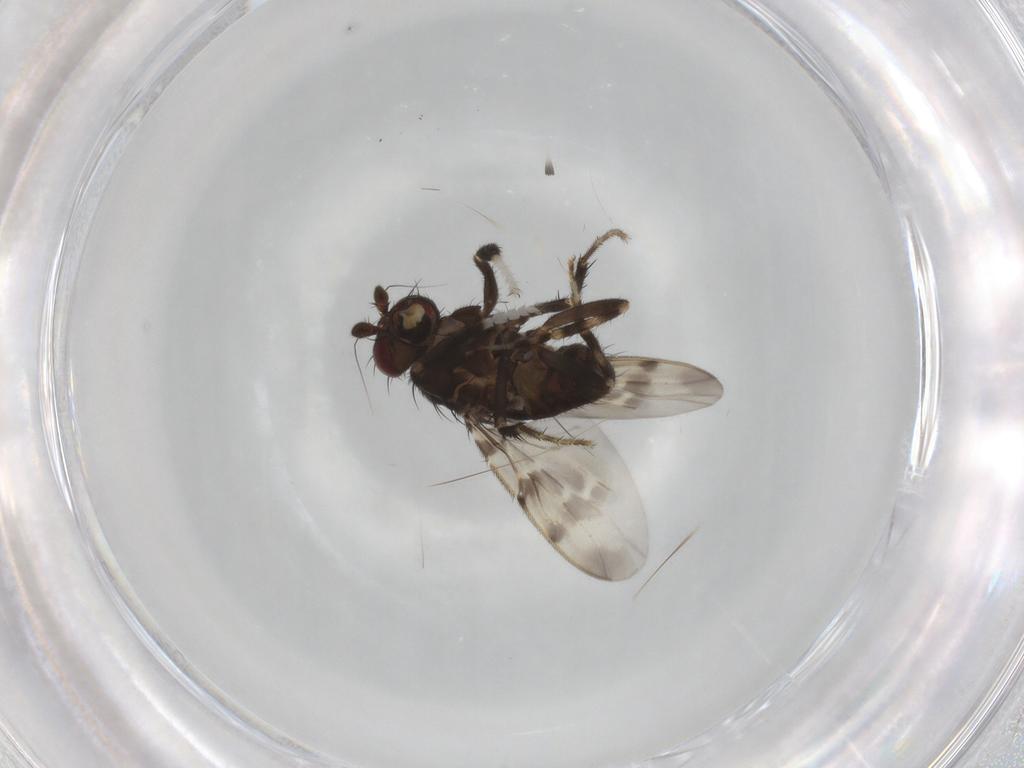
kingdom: Animalia
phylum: Arthropoda
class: Insecta
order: Diptera
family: Sphaeroceridae
